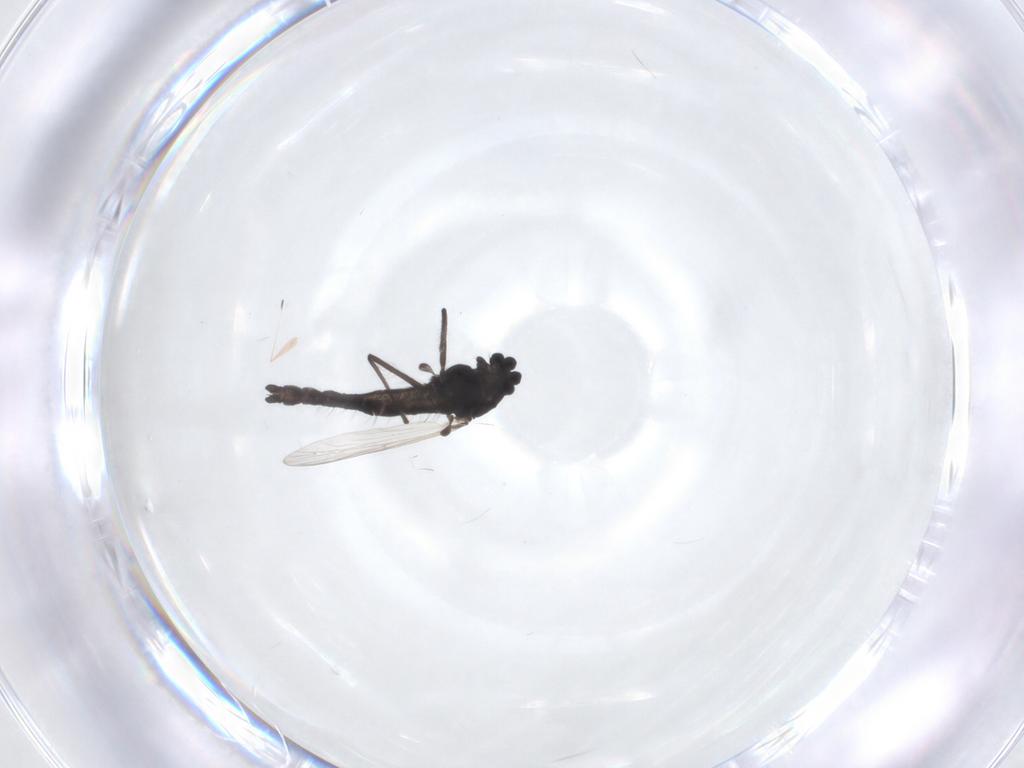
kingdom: Animalia
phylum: Arthropoda
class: Insecta
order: Diptera
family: Chironomidae
